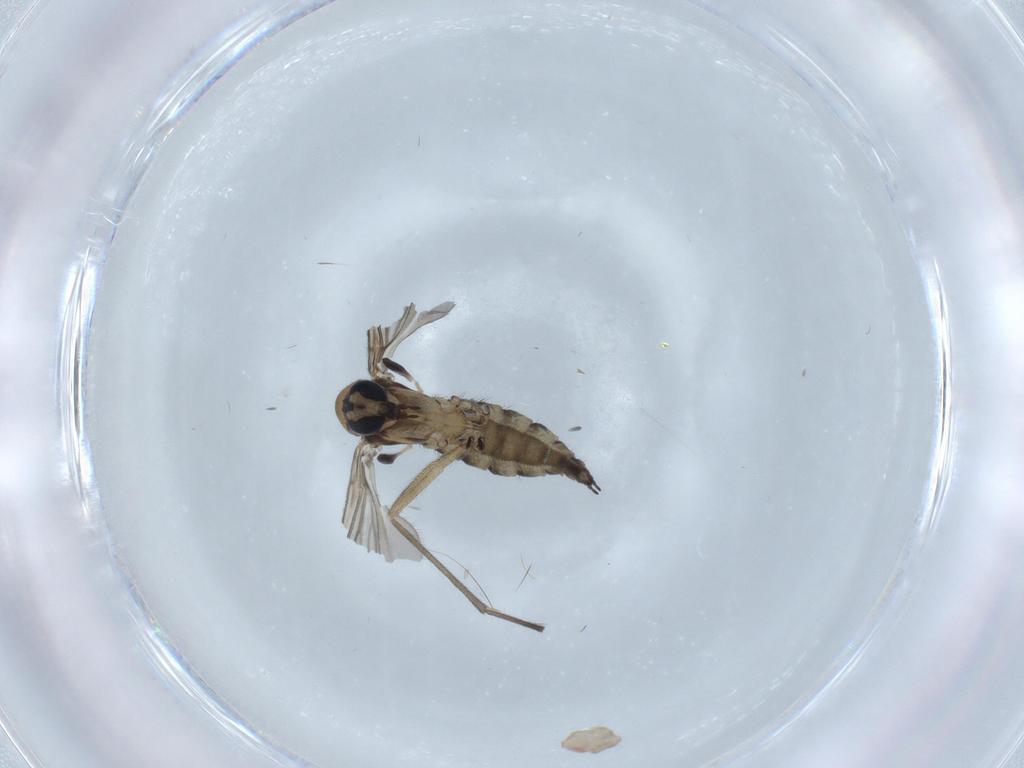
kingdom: Animalia
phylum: Arthropoda
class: Insecta
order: Diptera
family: Sciaridae
